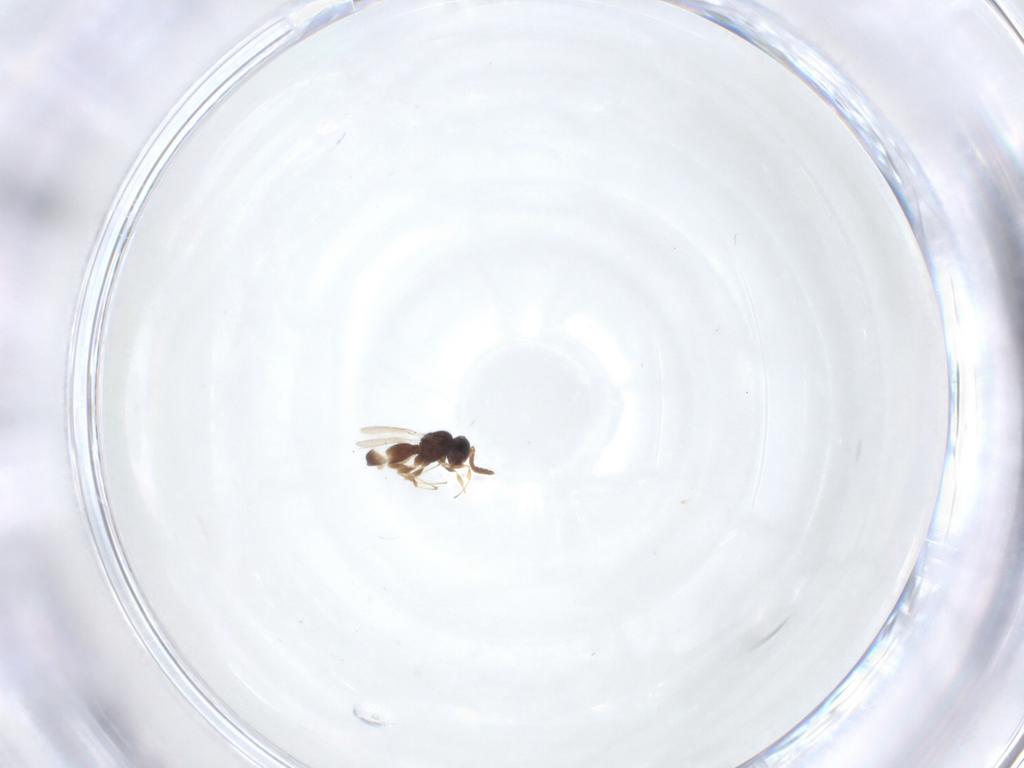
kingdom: Animalia
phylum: Arthropoda
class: Insecta
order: Hymenoptera
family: Scelionidae
